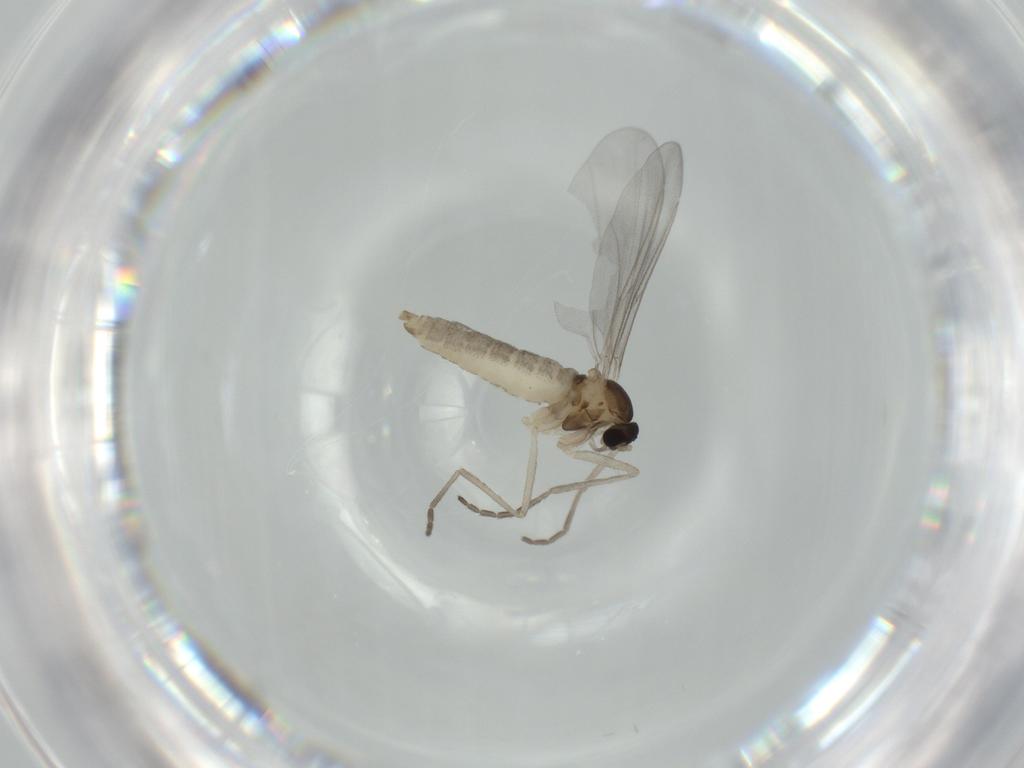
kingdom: Animalia
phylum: Arthropoda
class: Insecta
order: Diptera
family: Cecidomyiidae
